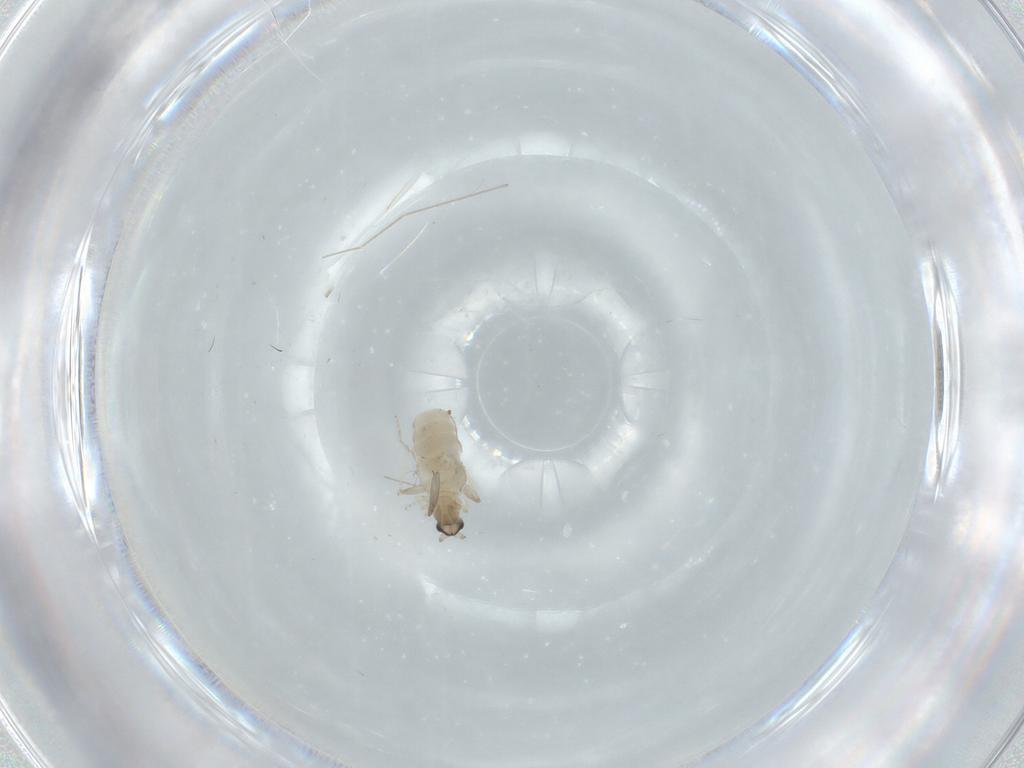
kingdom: Animalia
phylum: Arthropoda
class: Insecta
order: Diptera
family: Cecidomyiidae
